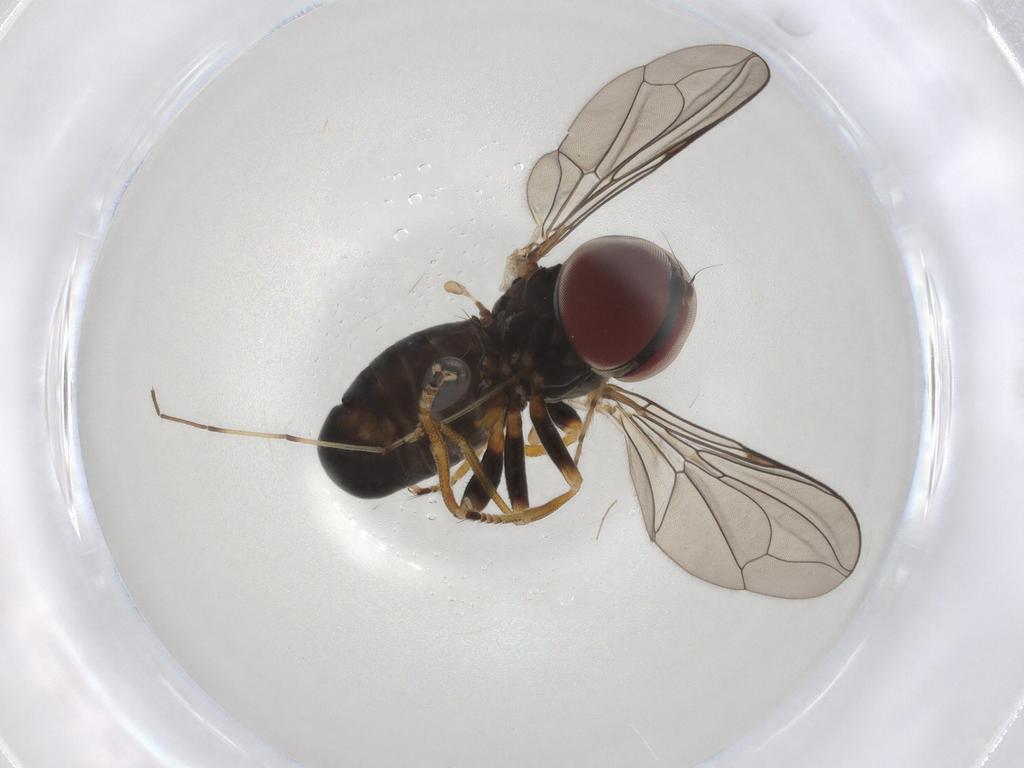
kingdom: Animalia
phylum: Arthropoda
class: Insecta
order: Diptera
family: Pipunculidae
